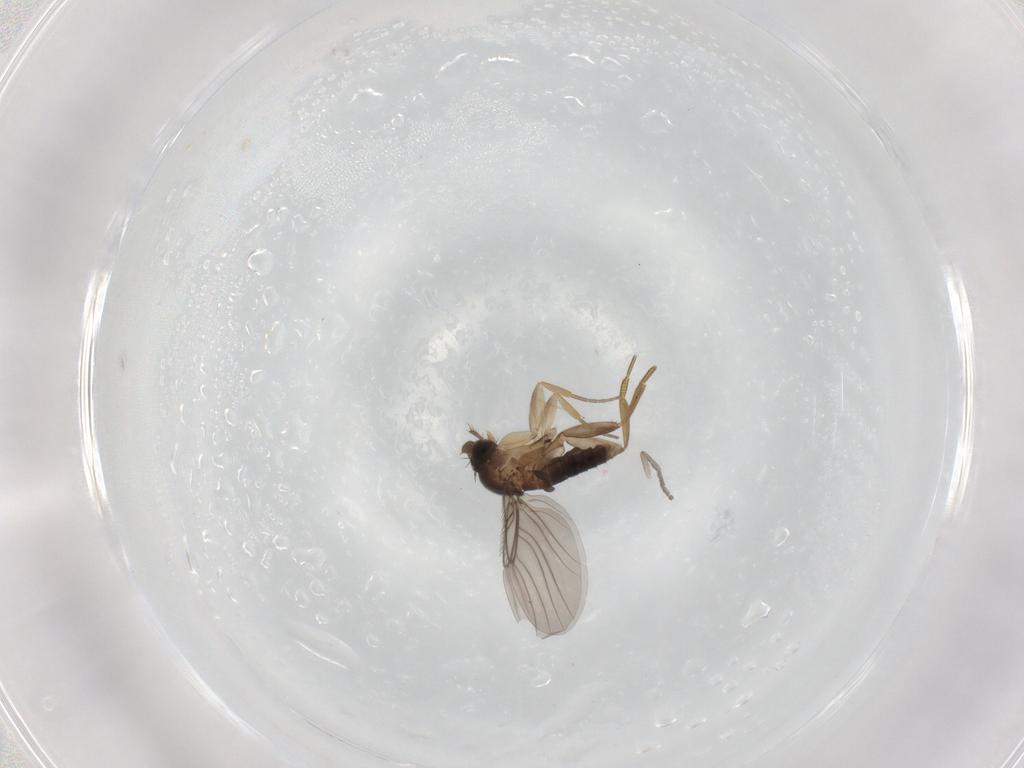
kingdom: Animalia
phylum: Arthropoda
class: Insecta
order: Diptera
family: Phoridae
